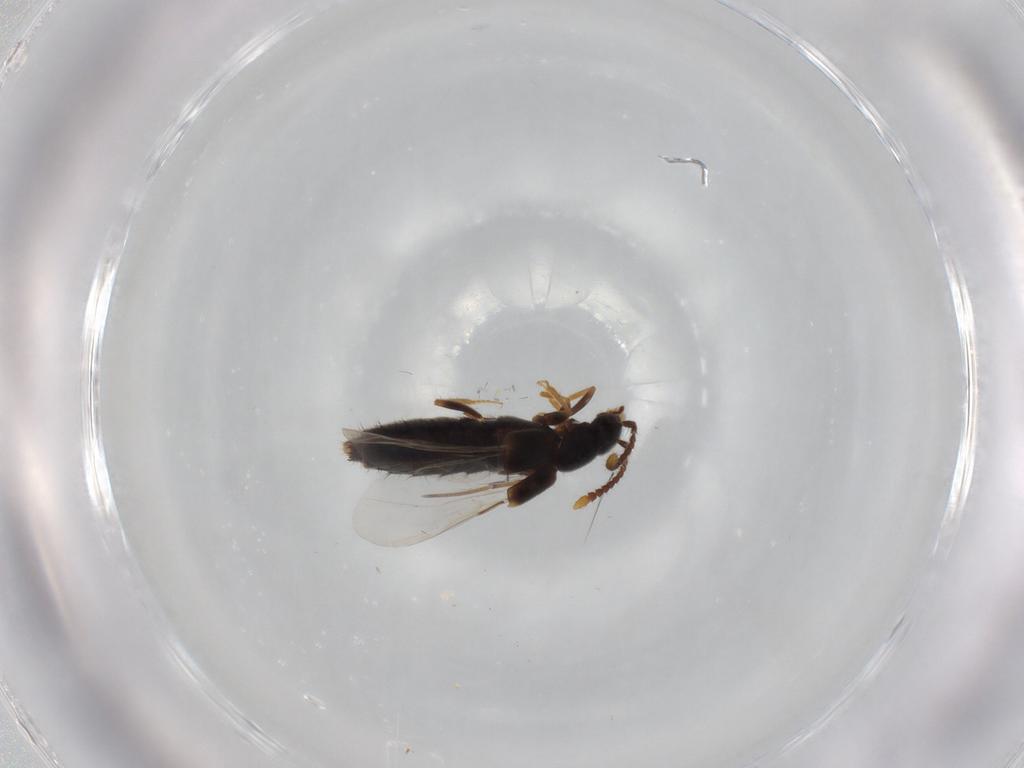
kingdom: Animalia
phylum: Arthropoda
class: Insecta
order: Coleoptera
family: Staphylinidae
